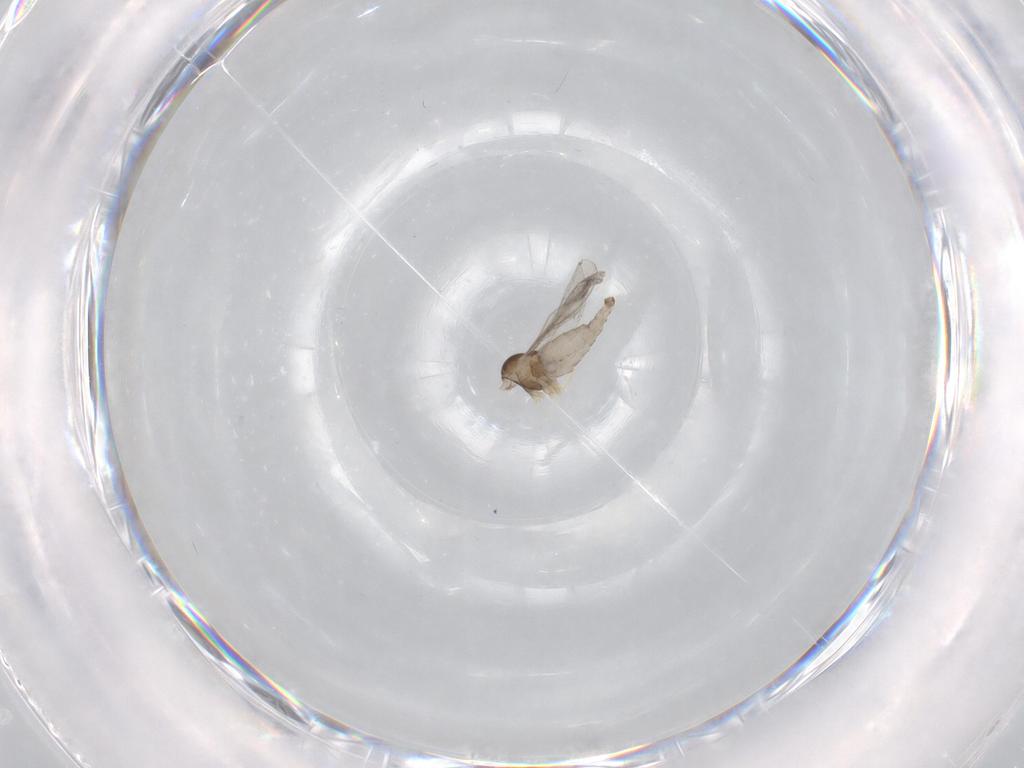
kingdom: Animalia
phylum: Arthropoda
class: Insecta
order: Diptera
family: Cecidomyiidae
